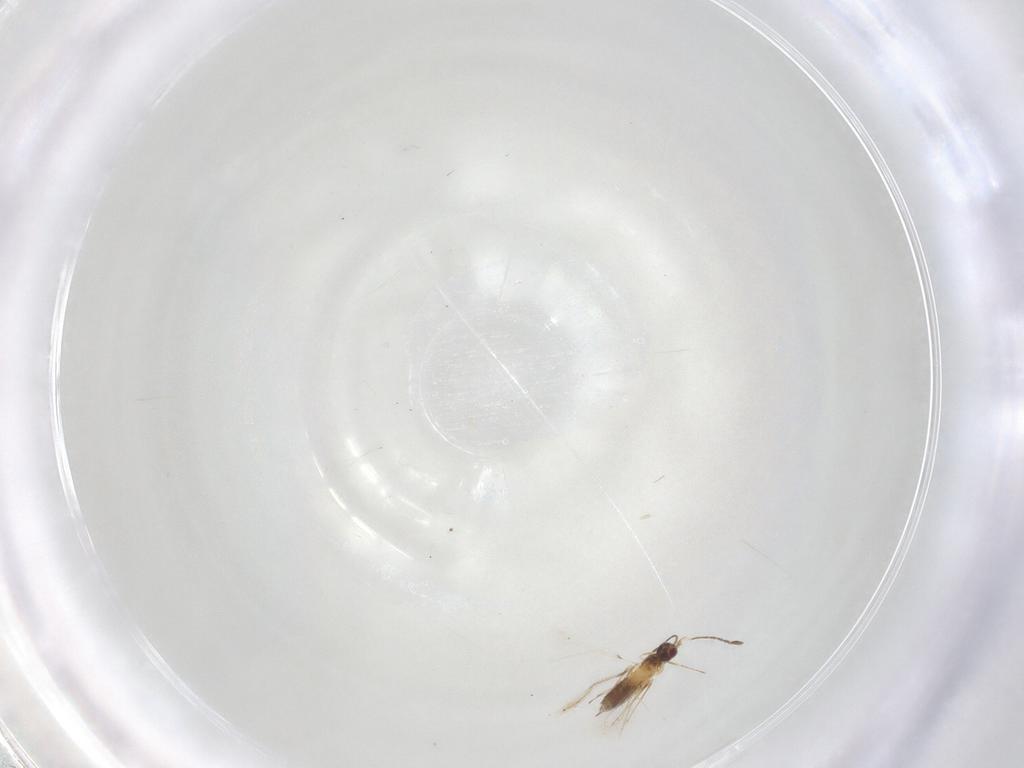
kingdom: Animalia
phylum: Arthropoda
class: Insecta
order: Hymenoptera
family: Mymaridae
